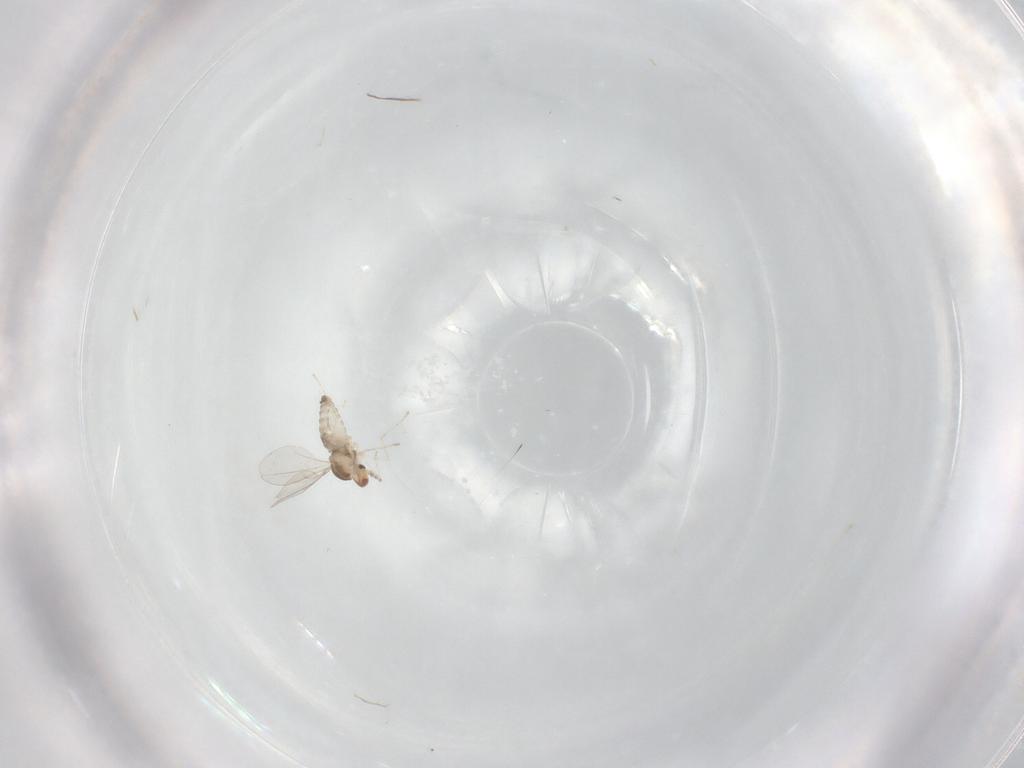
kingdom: Animalia
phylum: Arthropoda
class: Insecta
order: Diptera
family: Cecidomyiidae
